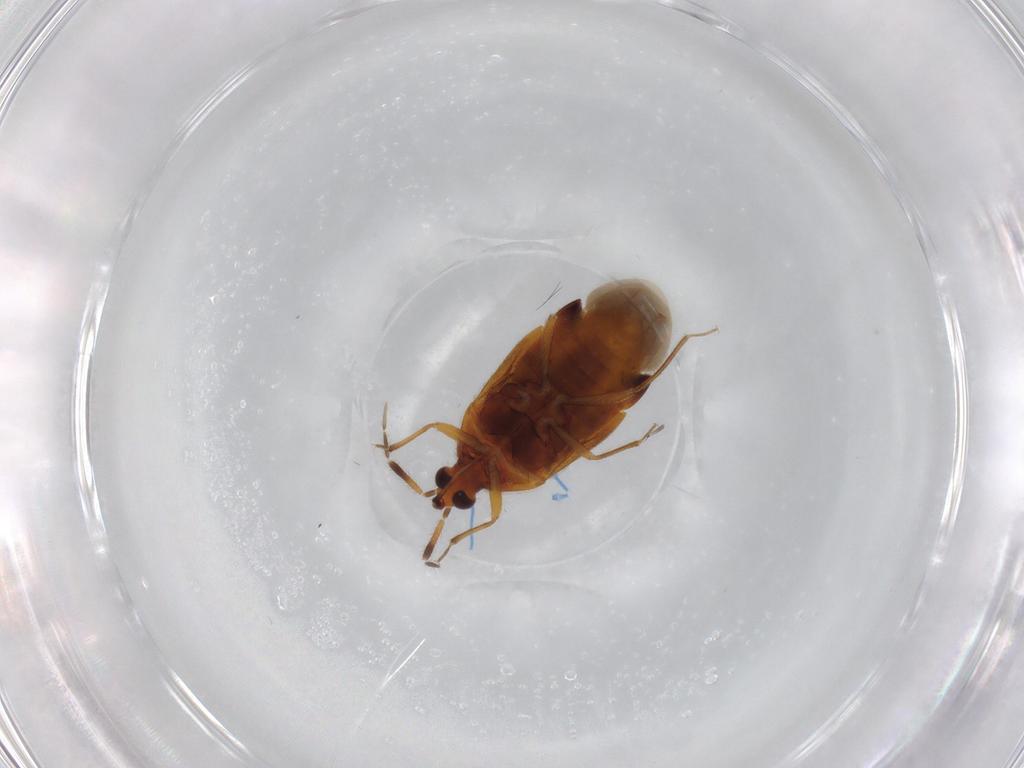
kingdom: Animalia
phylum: Arthropoda
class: Insecta
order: Hemiptera
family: Anthocoridae
